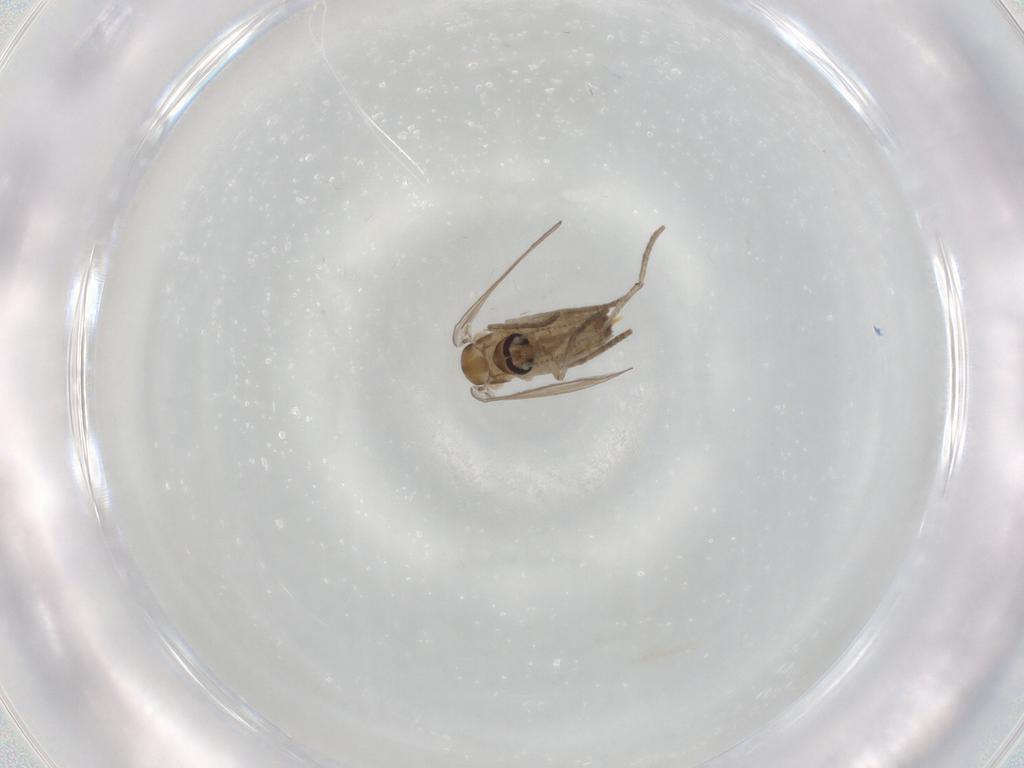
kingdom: Animalia
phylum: Arthropoda
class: Insecta
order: Diptera
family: Psychodidae
